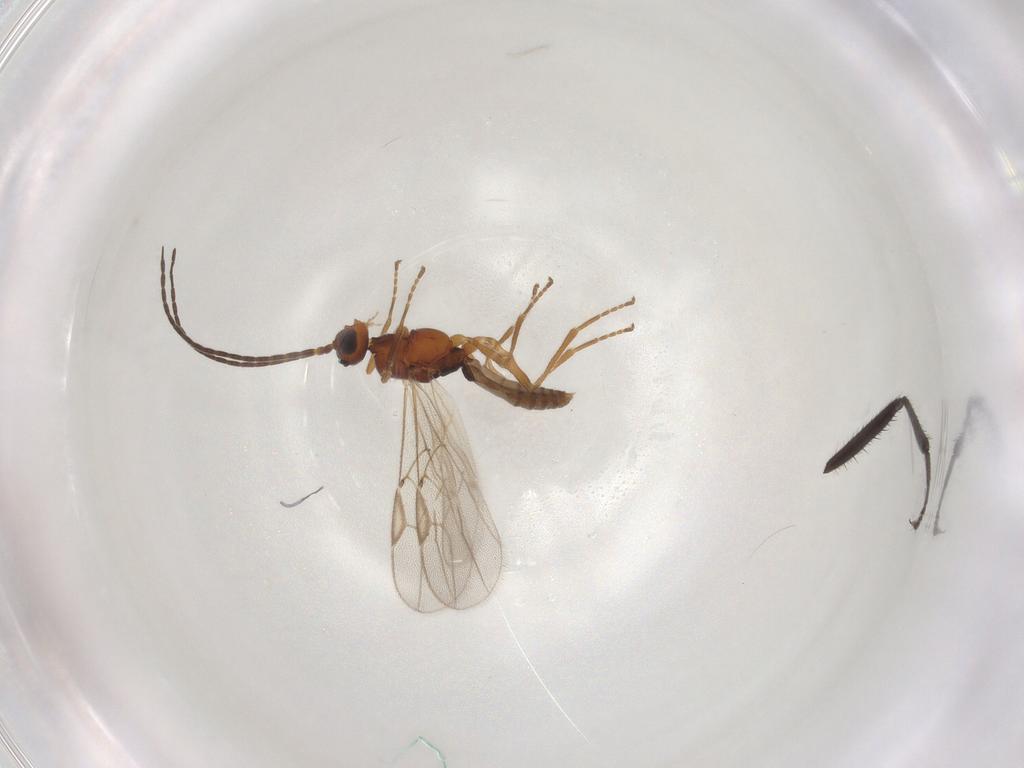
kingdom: Animalia
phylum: Arthropoda
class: Insecta
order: Hymenoptera
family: Braconidae
